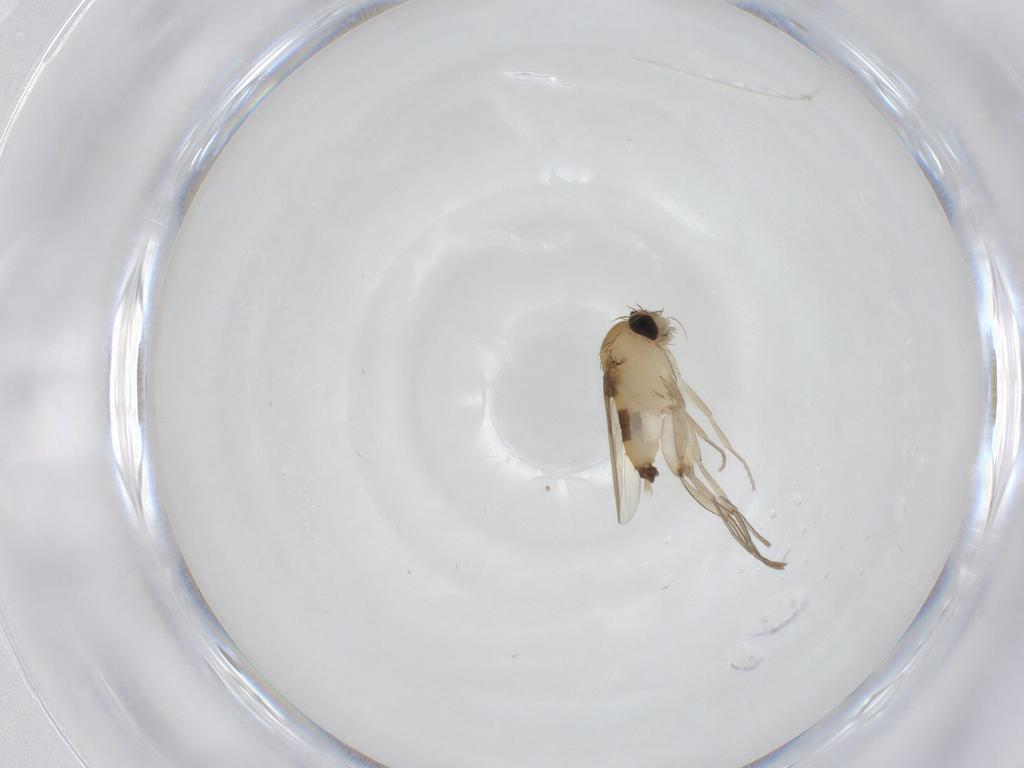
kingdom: Animalia
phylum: Arthropoda
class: Insecta
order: Diptera
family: Phoridae
